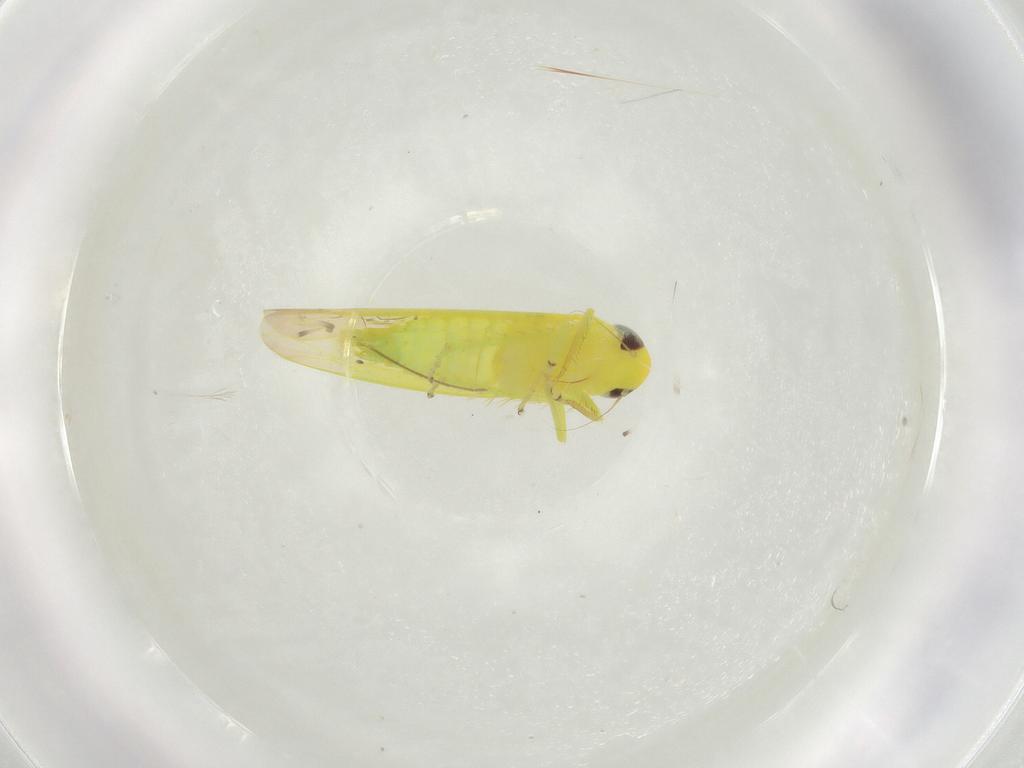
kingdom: Animalia
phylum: Arthropoda
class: Insecta
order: Hemiptera
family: Cicadellidae
